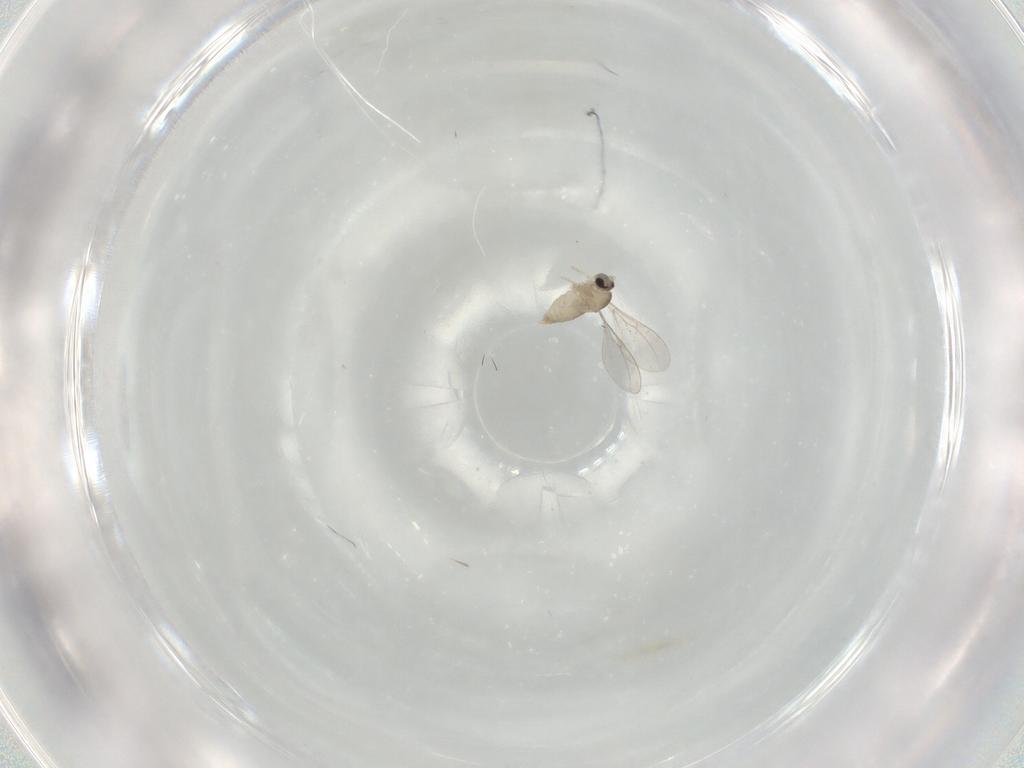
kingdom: Animalia
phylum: Arthropoda
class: Insecta
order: Diptera
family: Cecidomyiidae
